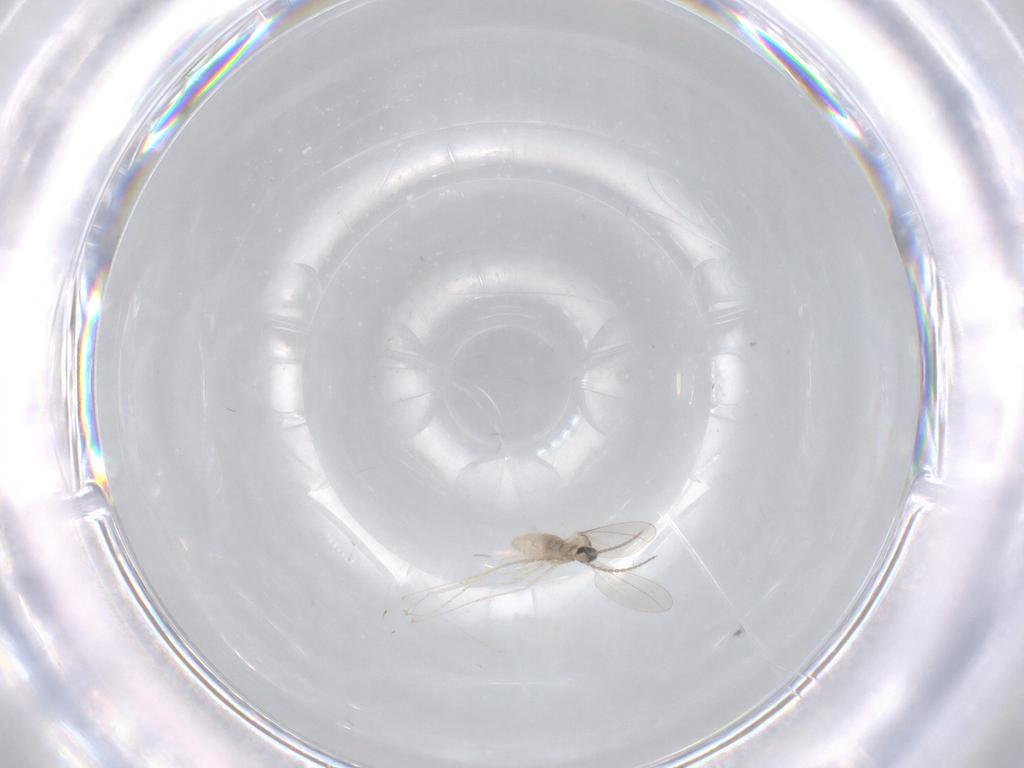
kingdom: Animalia
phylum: Arthropoda
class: Insecta
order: Diptera
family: Cecidomyiidae
